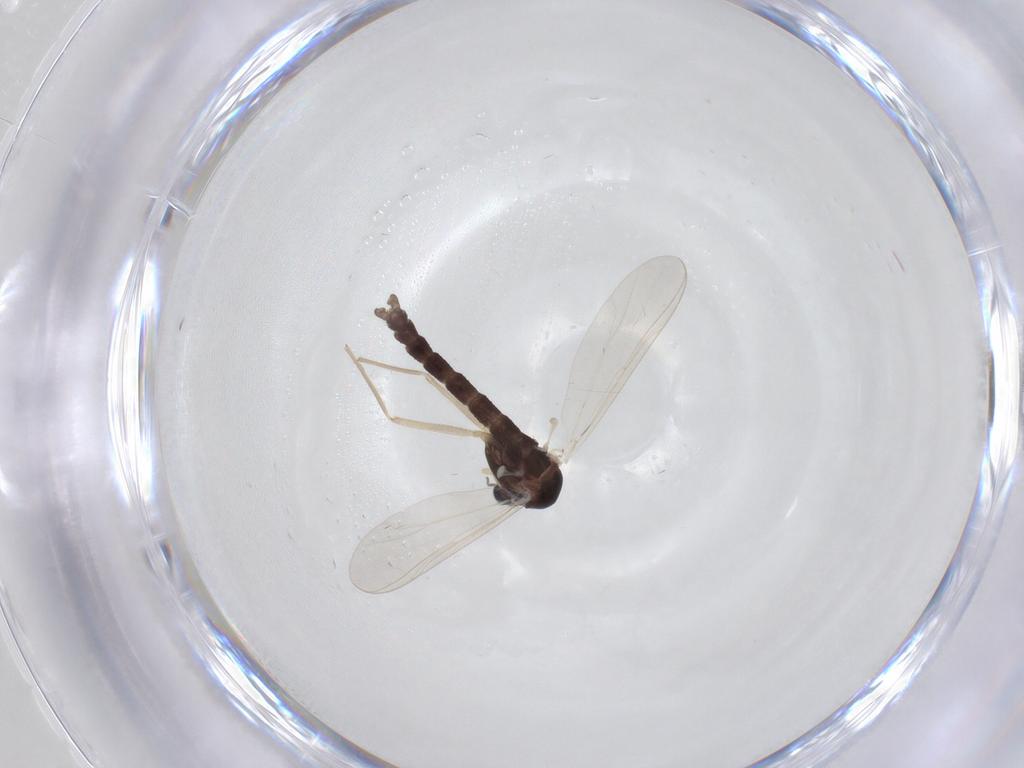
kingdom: Animalia
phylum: Arthropoda
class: Insecta
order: Diptera
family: Chironomidae
